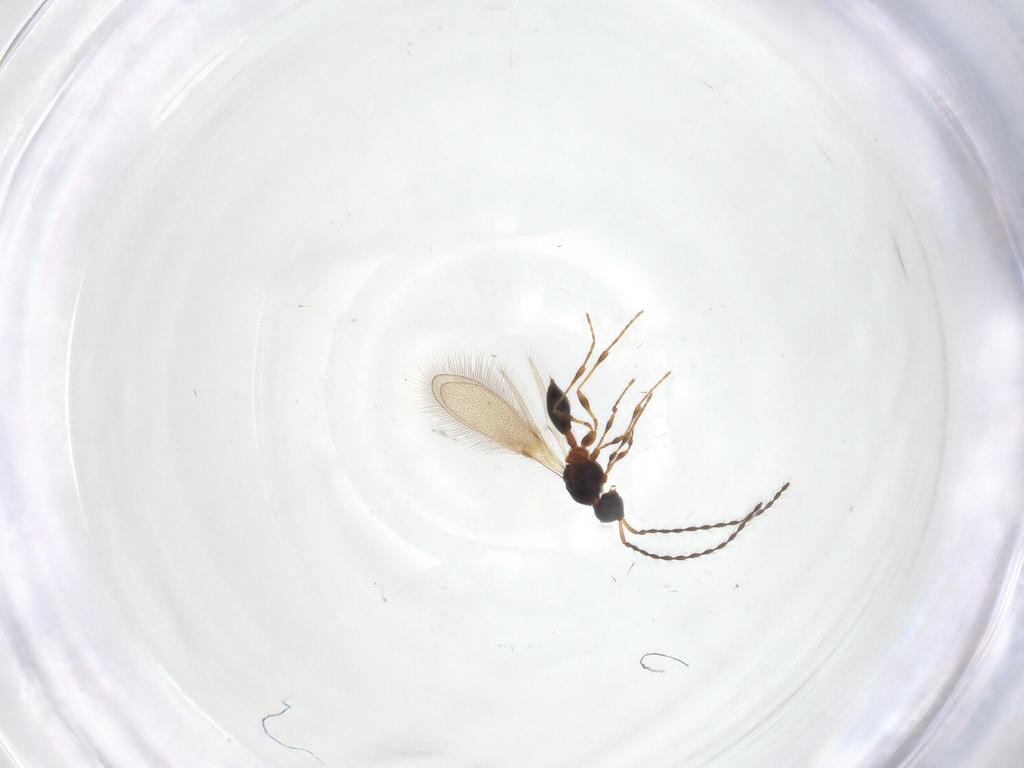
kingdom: Animalia
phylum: Arthropoda
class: Insecta
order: Hymenoptera
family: Diapriidae
